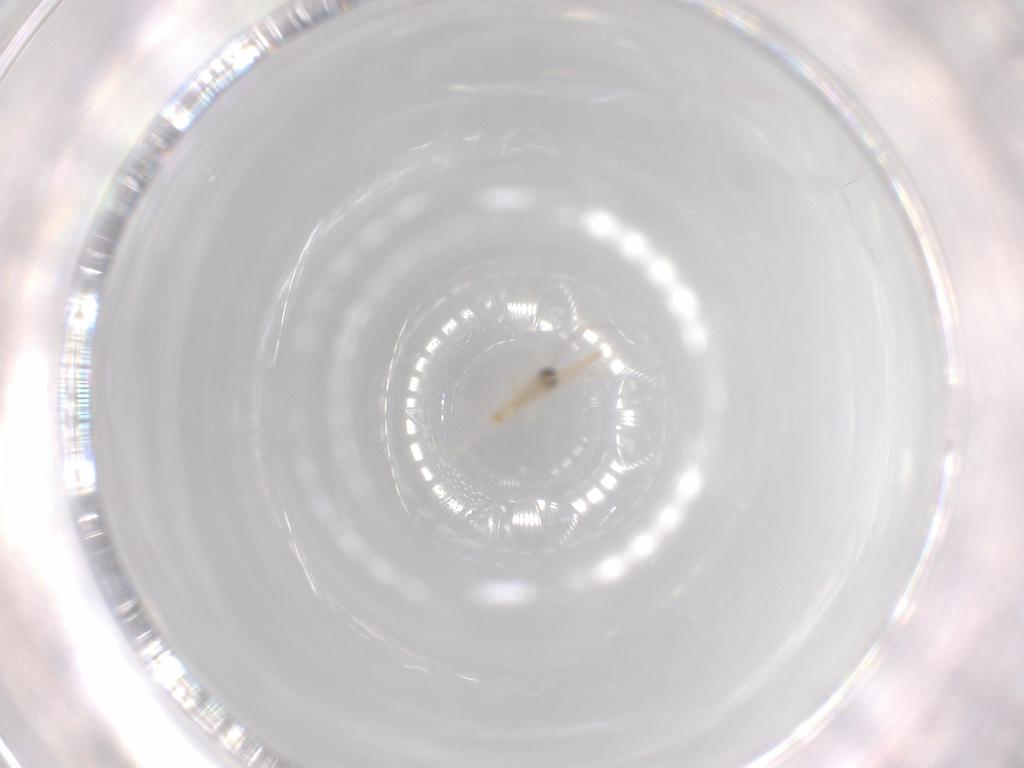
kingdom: Animalia
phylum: Arthropoda
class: Insecta
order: Diptera
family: Cecidomyiidae
